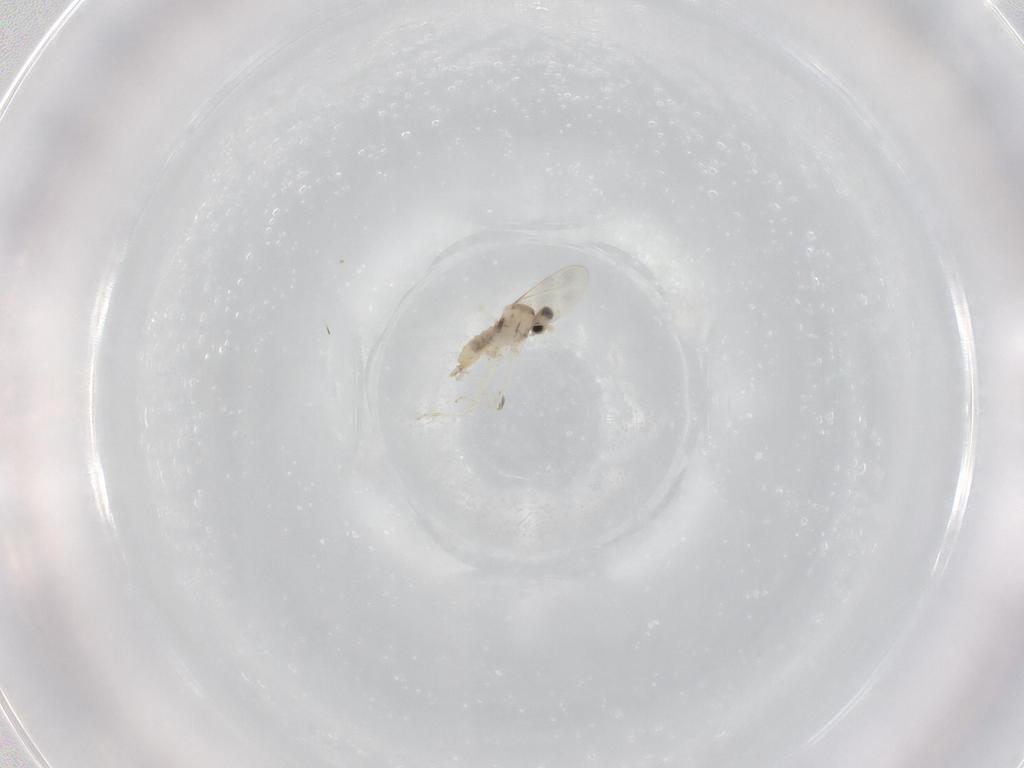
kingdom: Animalia
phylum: Arthropoda
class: Insecta
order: Diptera
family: Sciaridae
